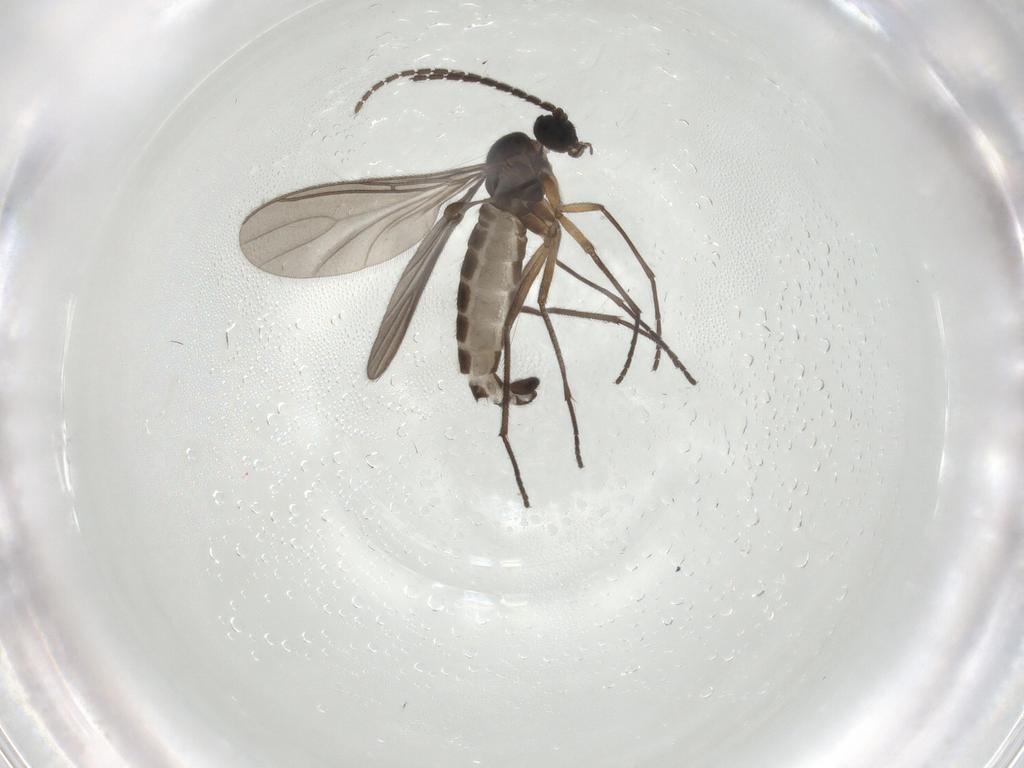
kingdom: Animalia
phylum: Arthropoda
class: Insecta
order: Diptera
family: Sciaridae
